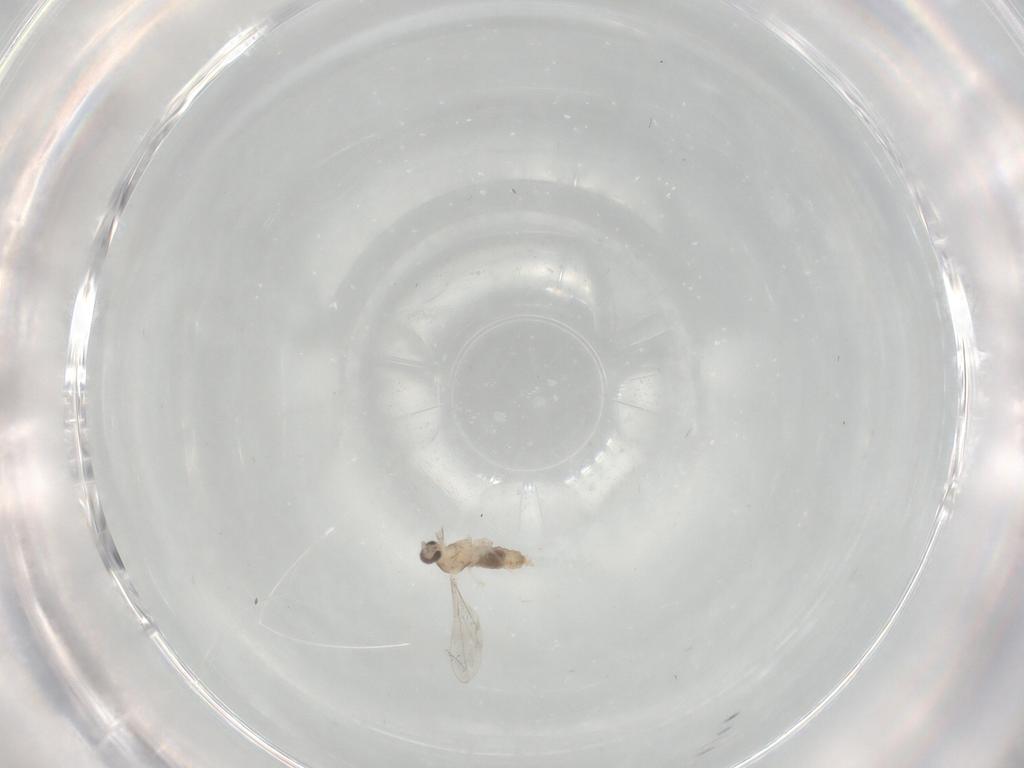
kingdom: Animalia
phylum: Arthropoda
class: Insecta
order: Diptera
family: Cecidomyiidae
